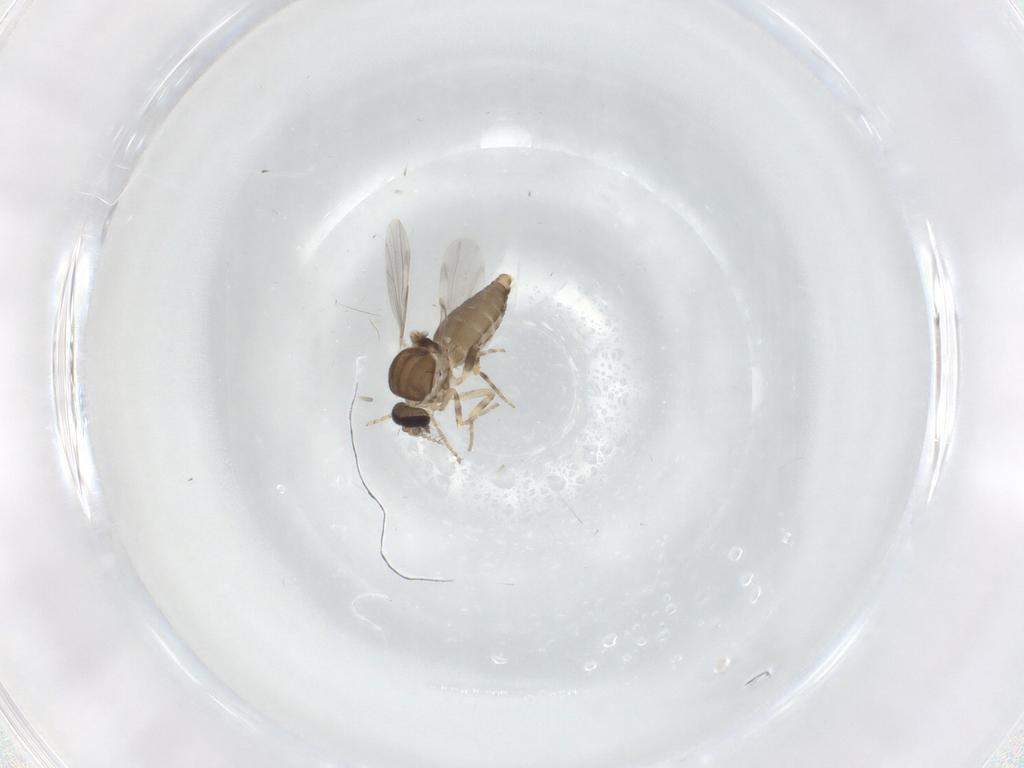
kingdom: Animalia
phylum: Arthropoda
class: Insecta
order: Diptera
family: Ceratopogonidae
